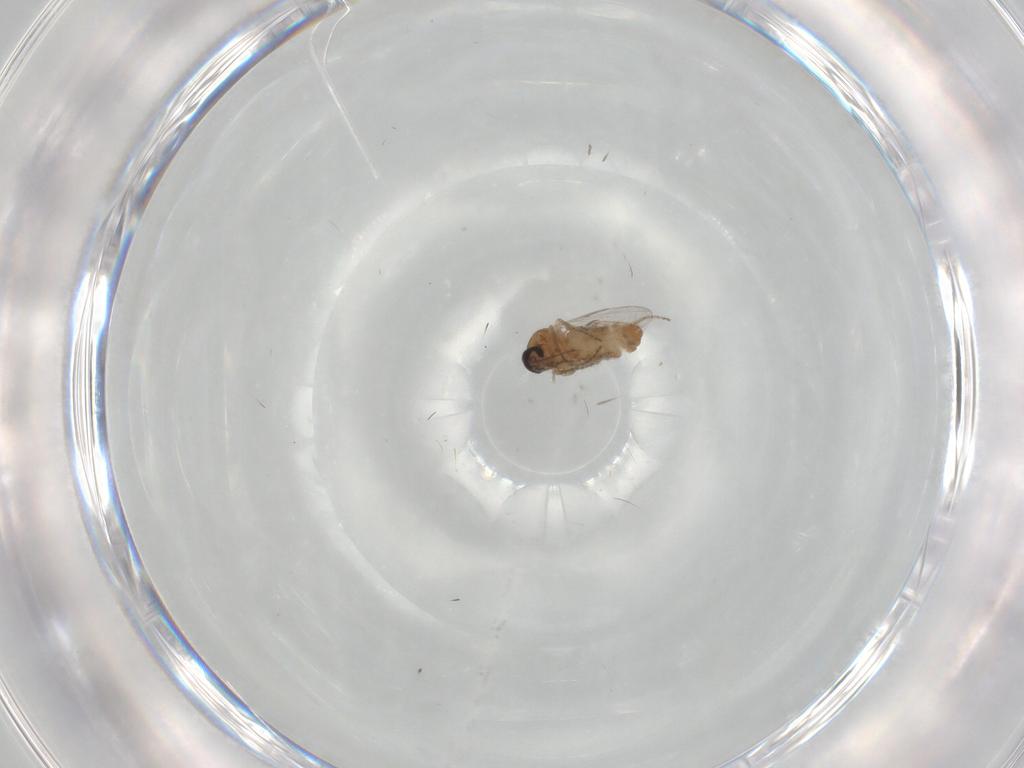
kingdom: Animalia
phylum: Arthropoda
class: Insecta
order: Diptera
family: Ceratopogonidae
